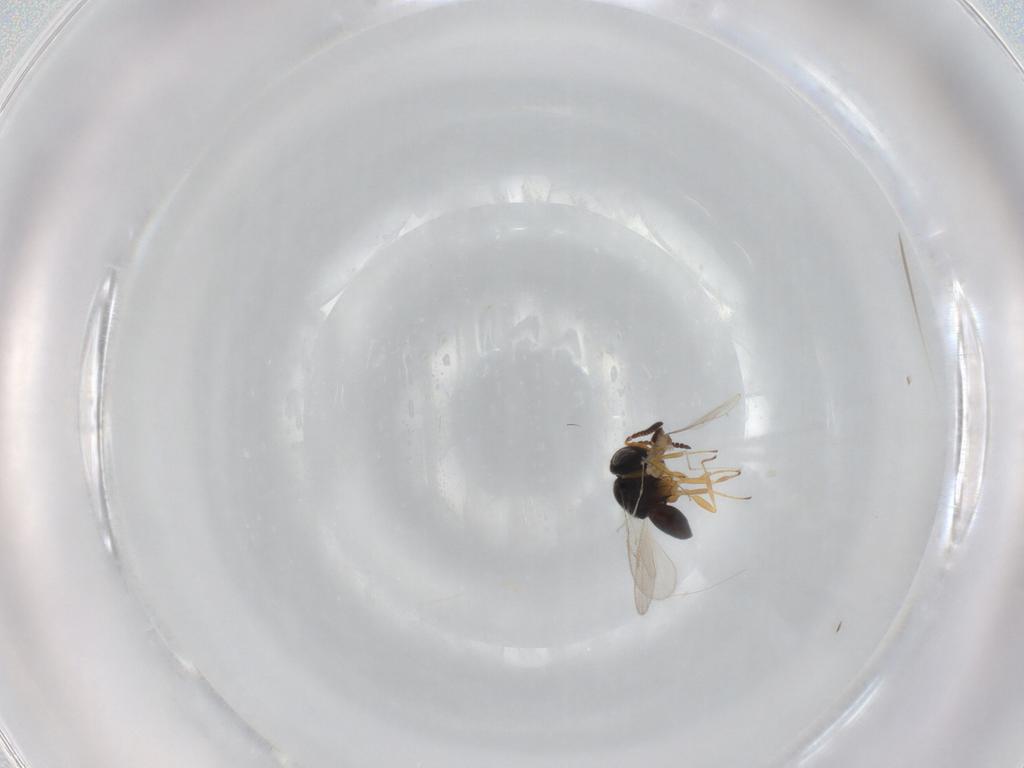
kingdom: Animalia
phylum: Arthropoda
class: Insecta
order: Diptera
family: Cecidomyiidae
